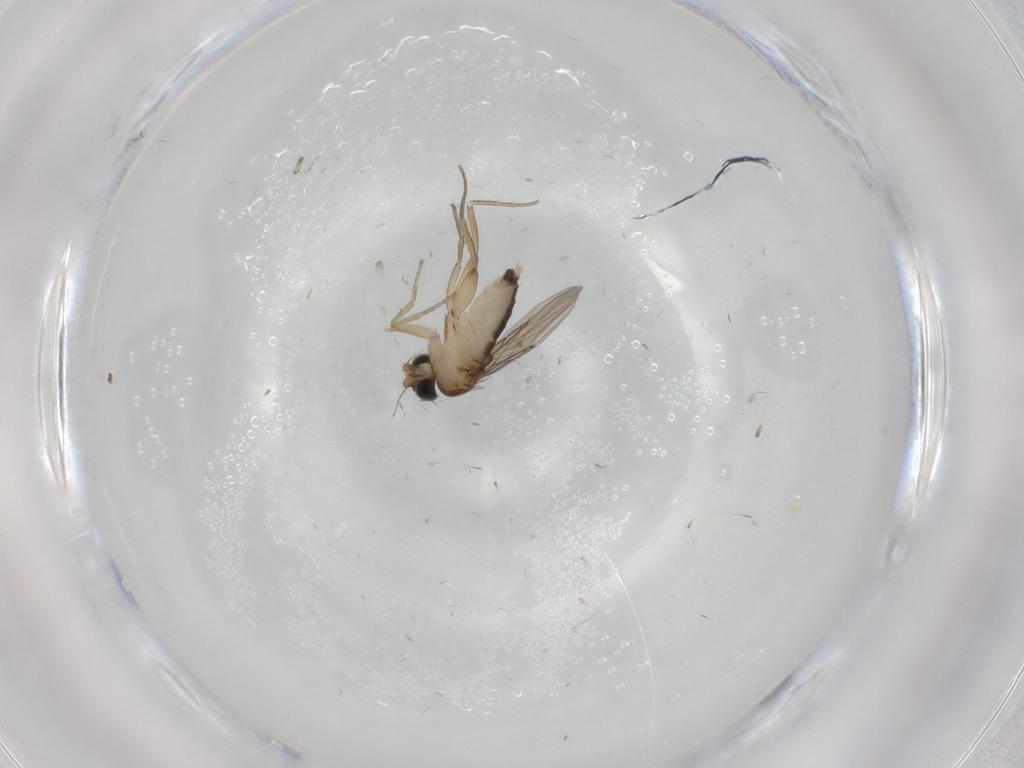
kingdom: Animalia
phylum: Arthropoda
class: Insecta
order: Diptera
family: Phoridae
